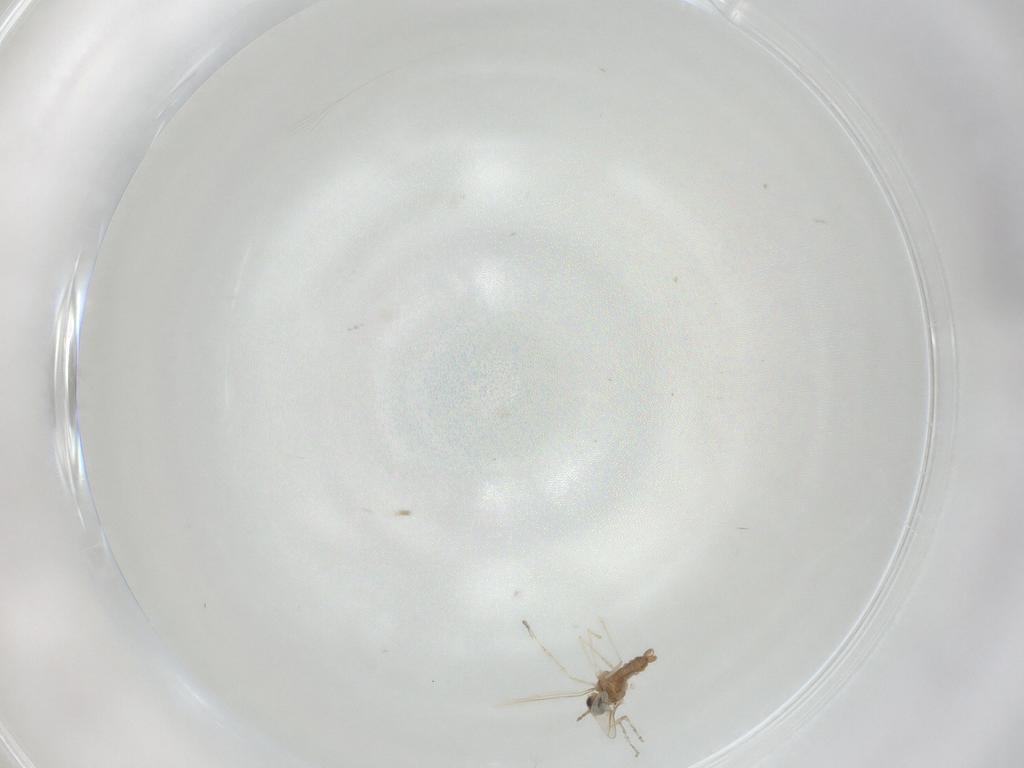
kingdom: Animalia
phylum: Arthropoda
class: Insecta
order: Diptera
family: Cecidomyiidae
